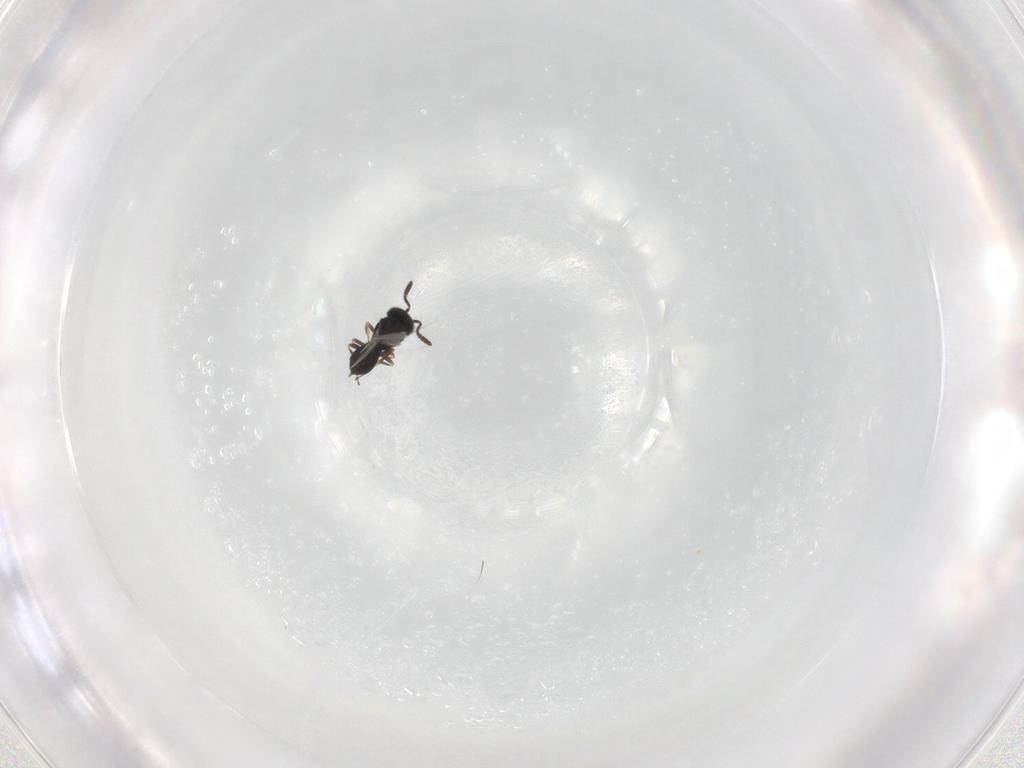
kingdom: Animalia
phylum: Arthropoda
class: Insecta
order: Hymenoptera
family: Scelionidae
